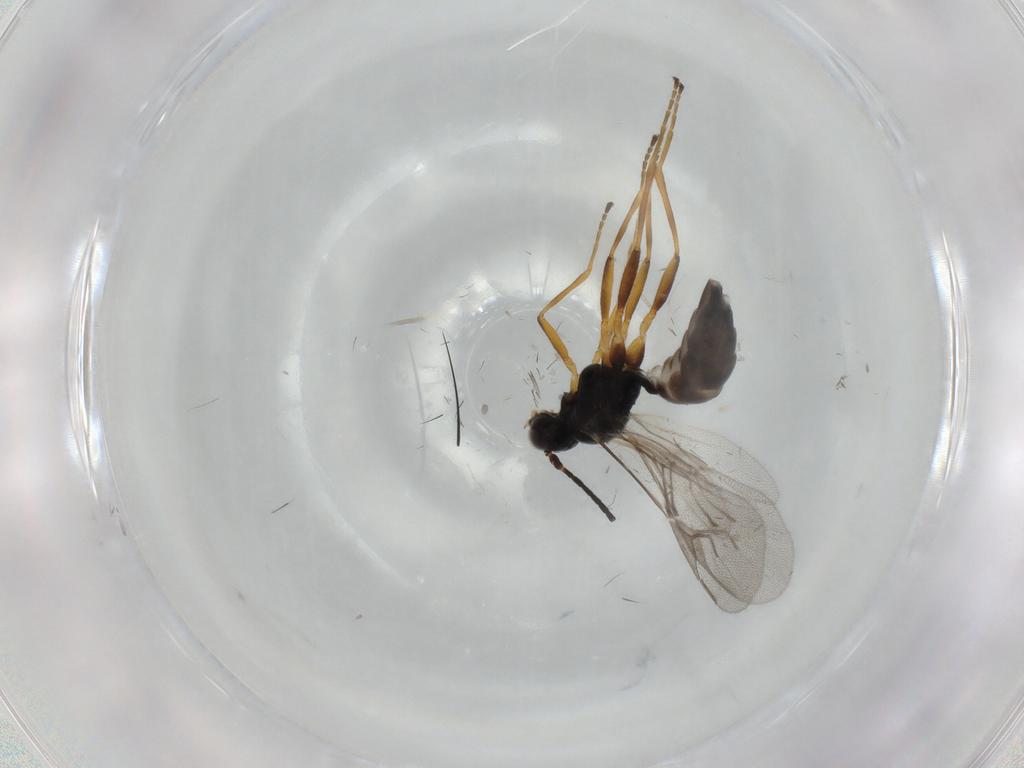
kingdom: Animalia
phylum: Arthropoda
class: Insecta
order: Hymenoptera
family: Braconidae
